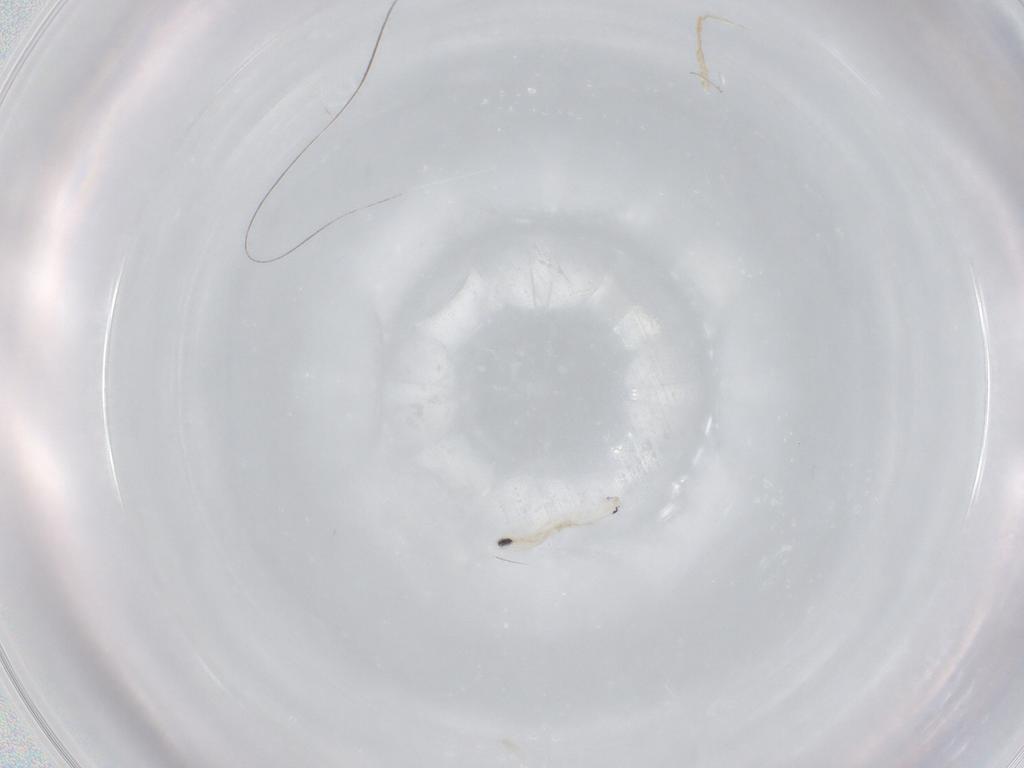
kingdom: Animalia
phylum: Arthropoda
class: Collembola
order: Entomobryomorpha
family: Entomobryidae
